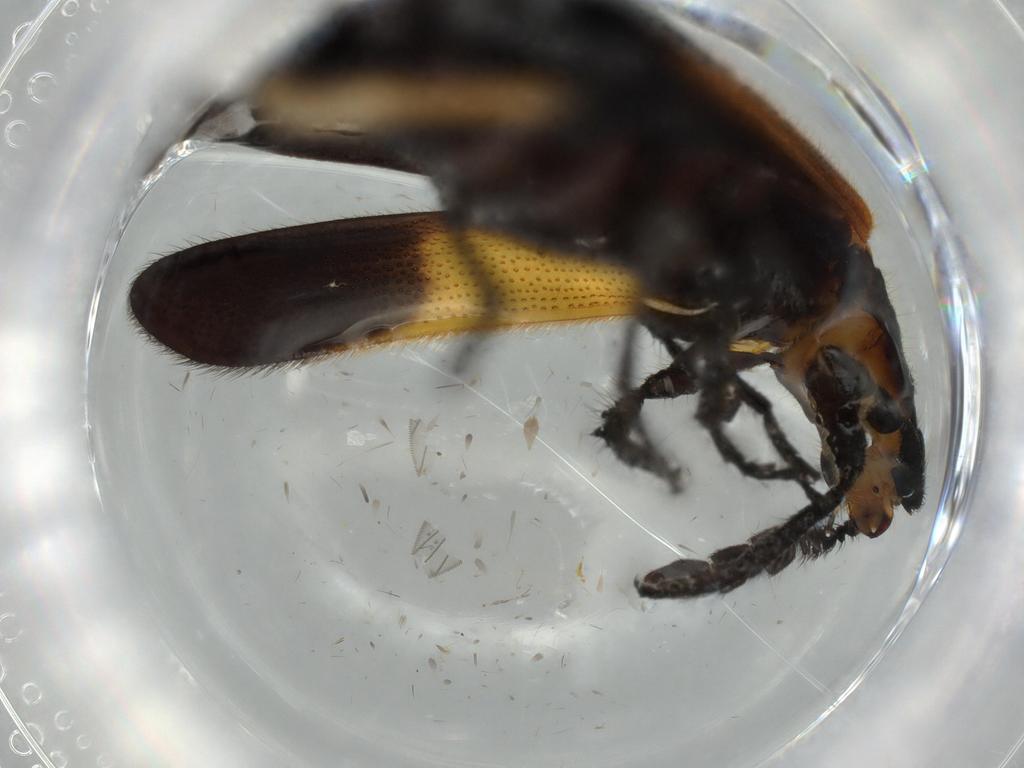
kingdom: Animalia
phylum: Arthropoda
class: Insecta
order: Coleoptera
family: Cleridae
